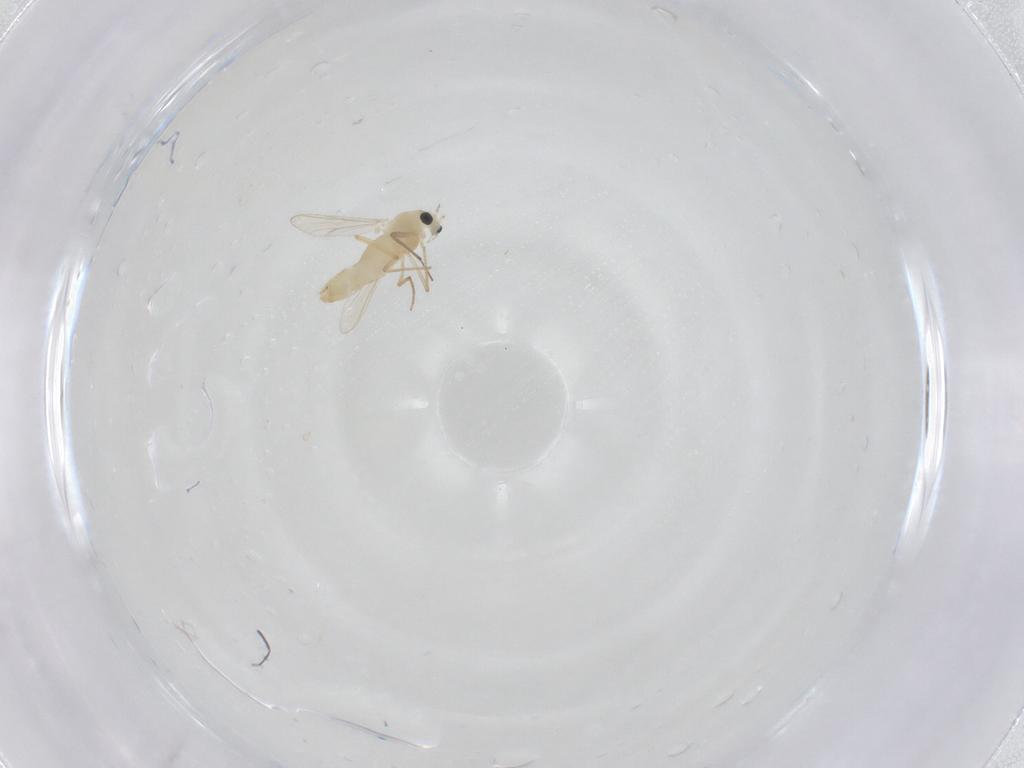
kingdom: Animalia
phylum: Arthropoda
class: Insecta
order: Diptera
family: Chironomidae
